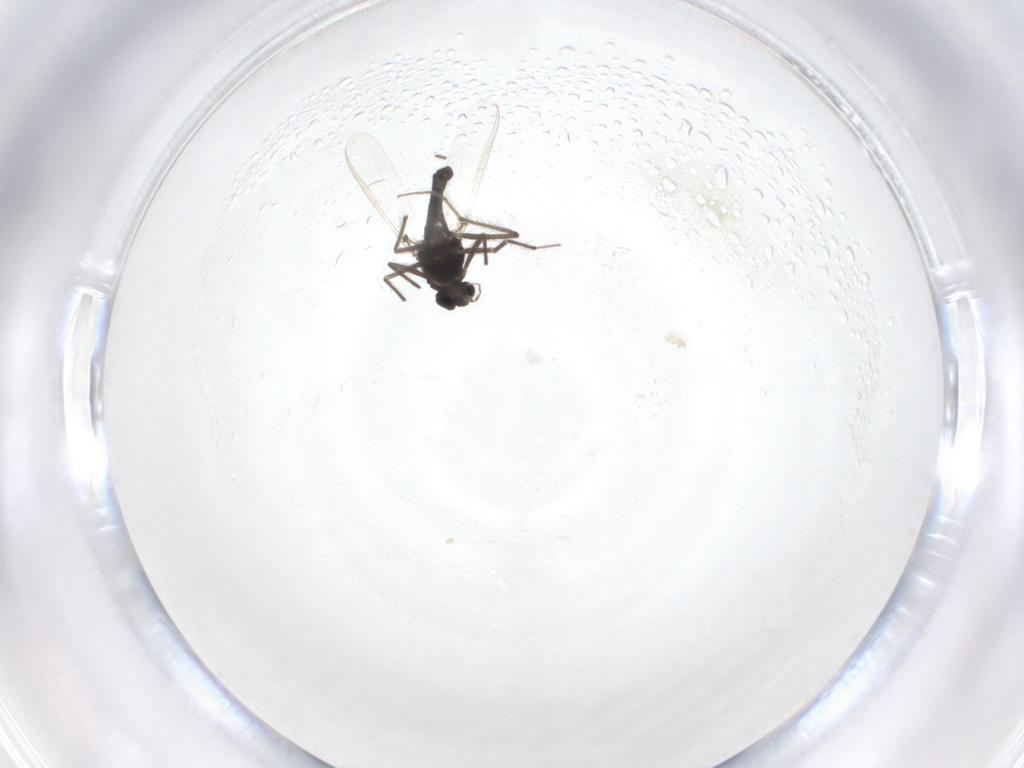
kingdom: Animalia
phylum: Arthropoda
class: Insecta
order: Diptera
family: Chironomidae
